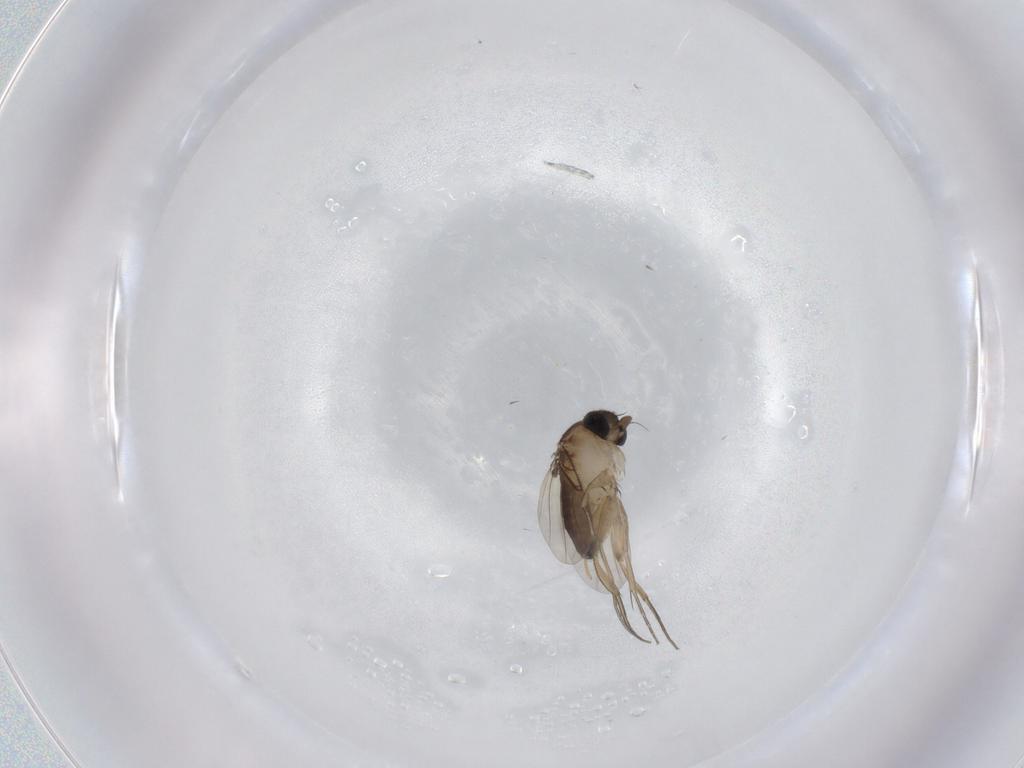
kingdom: Animalia
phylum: Arthropoda
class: Insecta
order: Diptera
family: Phoridae
